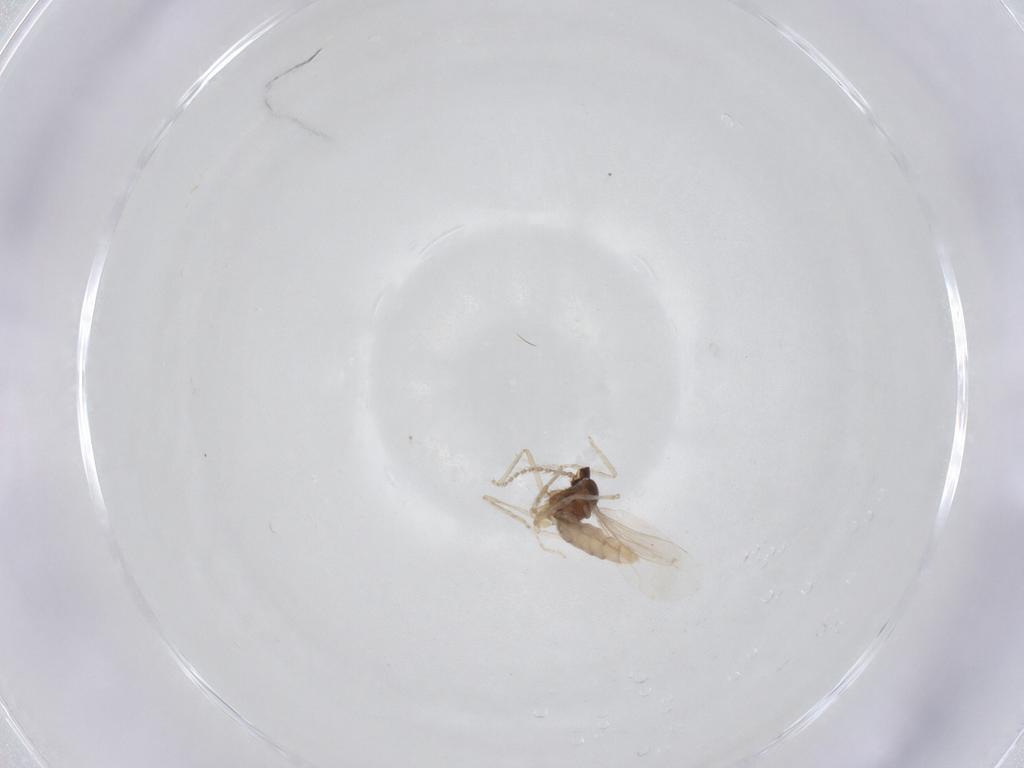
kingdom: Animalia
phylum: Arthropoda
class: Insecta
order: Diptera
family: Cecidomyiidae
